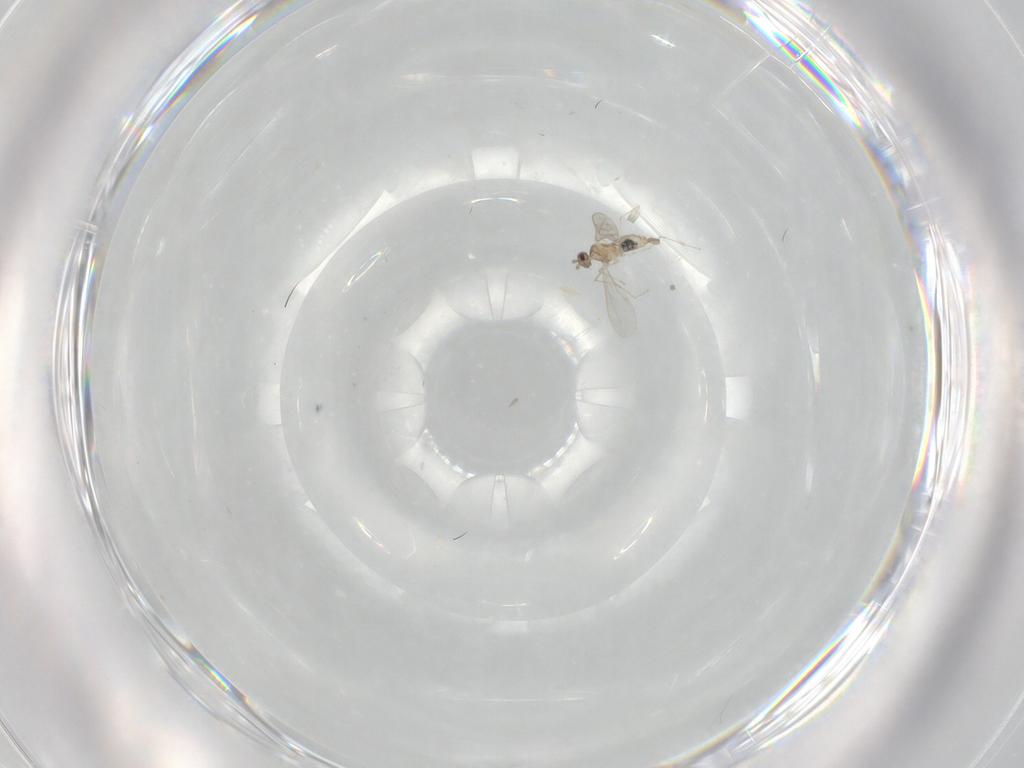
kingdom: Animalia
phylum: Arthropoda
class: Insecta
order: Diptera
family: Cecidomyiidae
